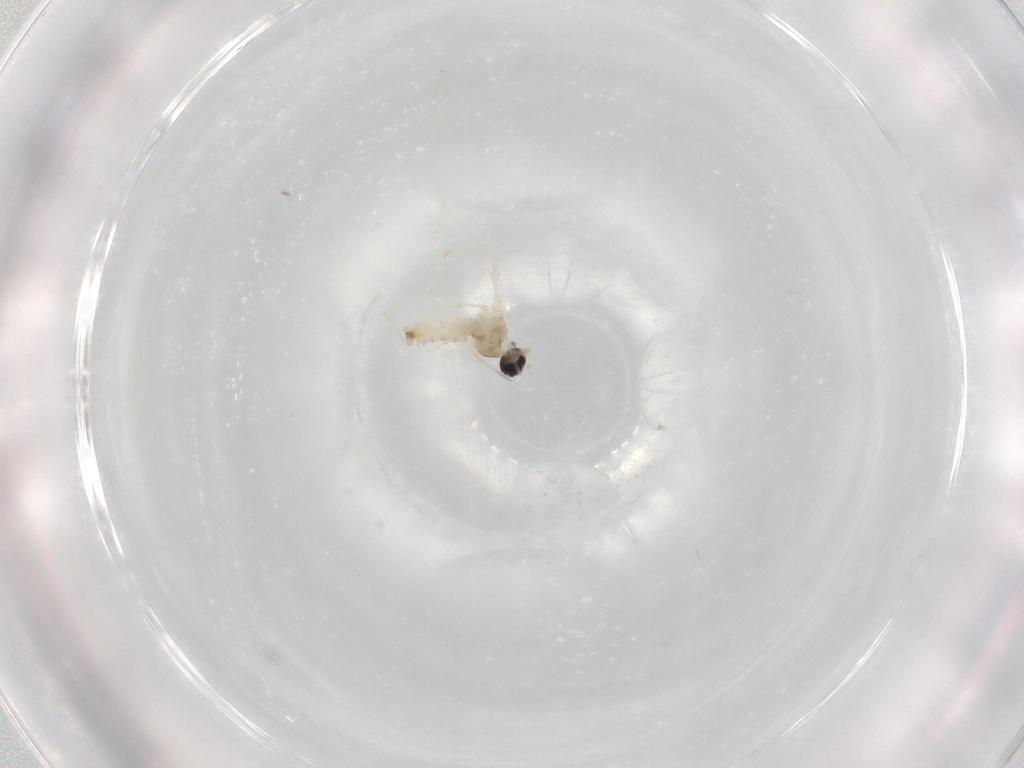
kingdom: Animalia
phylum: Arthropoda
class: Insecta
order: Diptera
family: Cecidomyiidae
